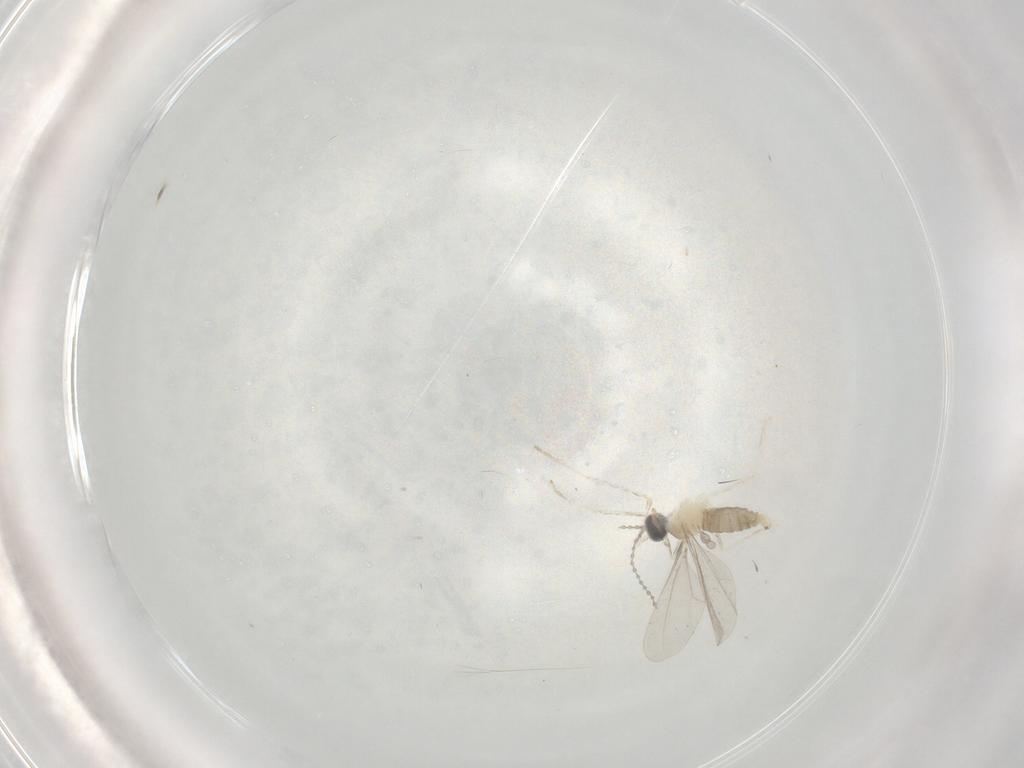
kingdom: Animalia
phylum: Arthropoda
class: Insecta
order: Diptera
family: Cecidomyiidae
